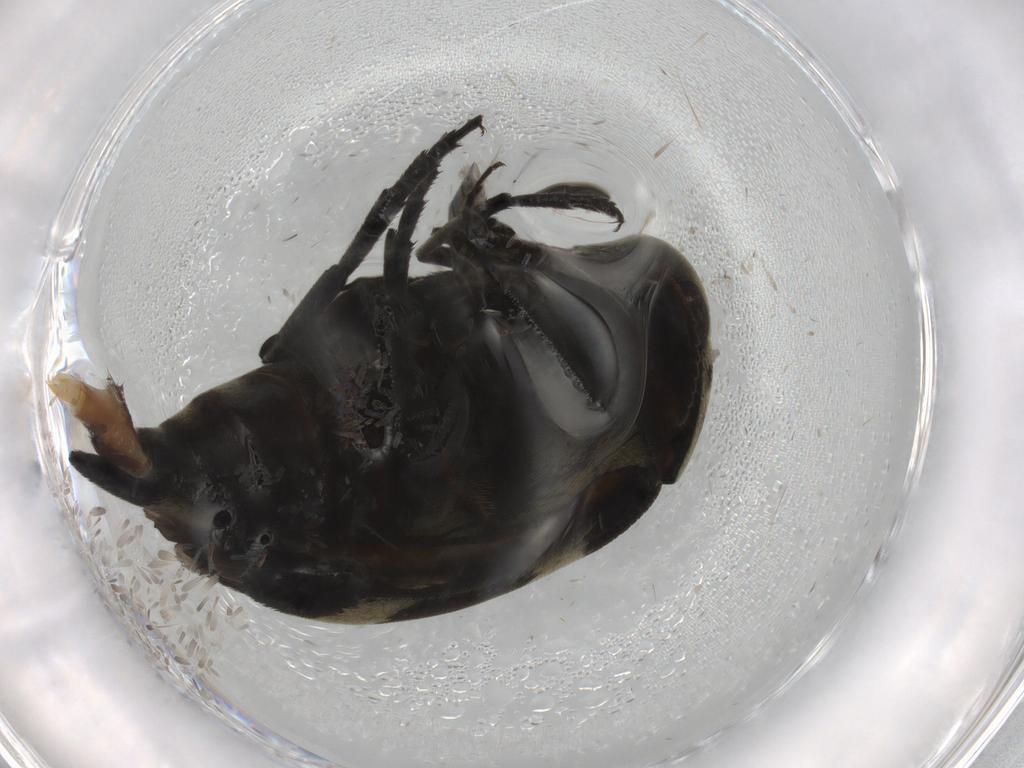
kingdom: Animalia
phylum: Arthropoda
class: Insecta
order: Coleoptera
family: Mordellidae
